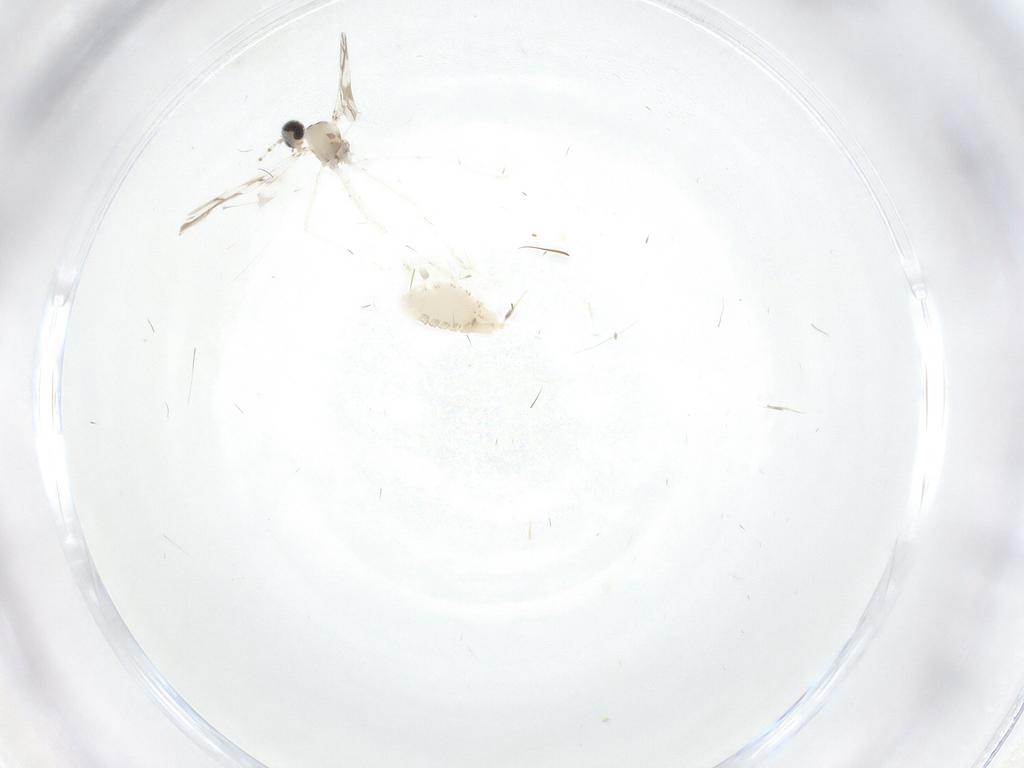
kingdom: Animalia
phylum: Arthropoda
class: Insecta
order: Diptera
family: Cecidomyiidae
